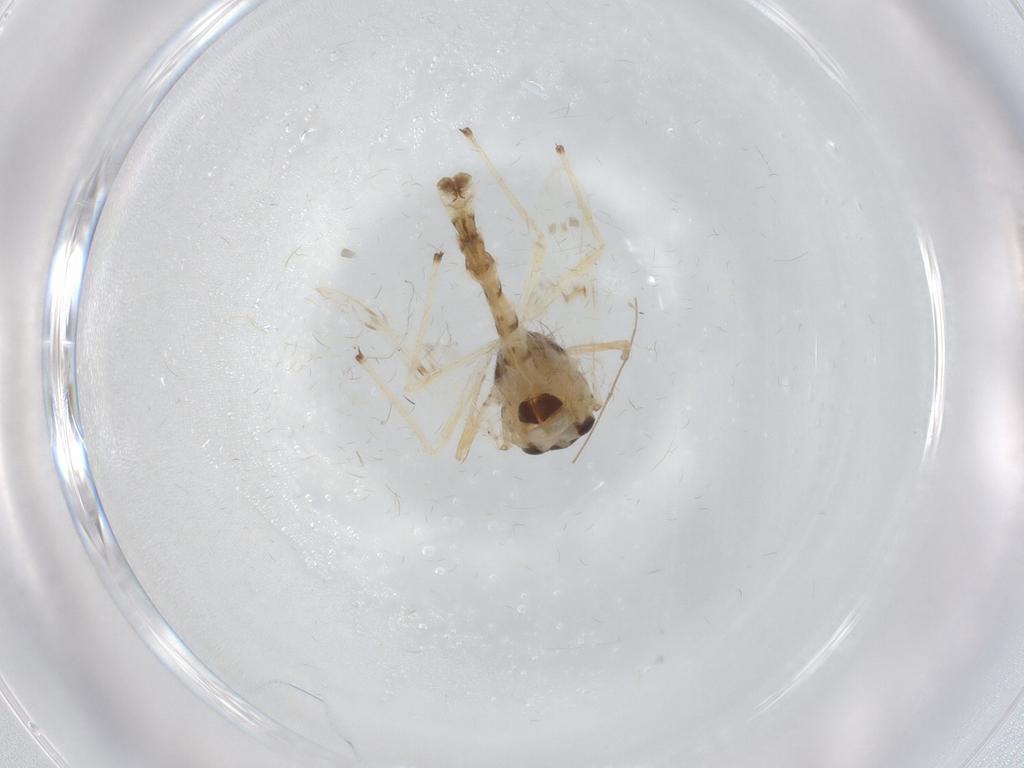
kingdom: Animalia
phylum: Arthropoda
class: Insecta
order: Diptera
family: Chironomidae
